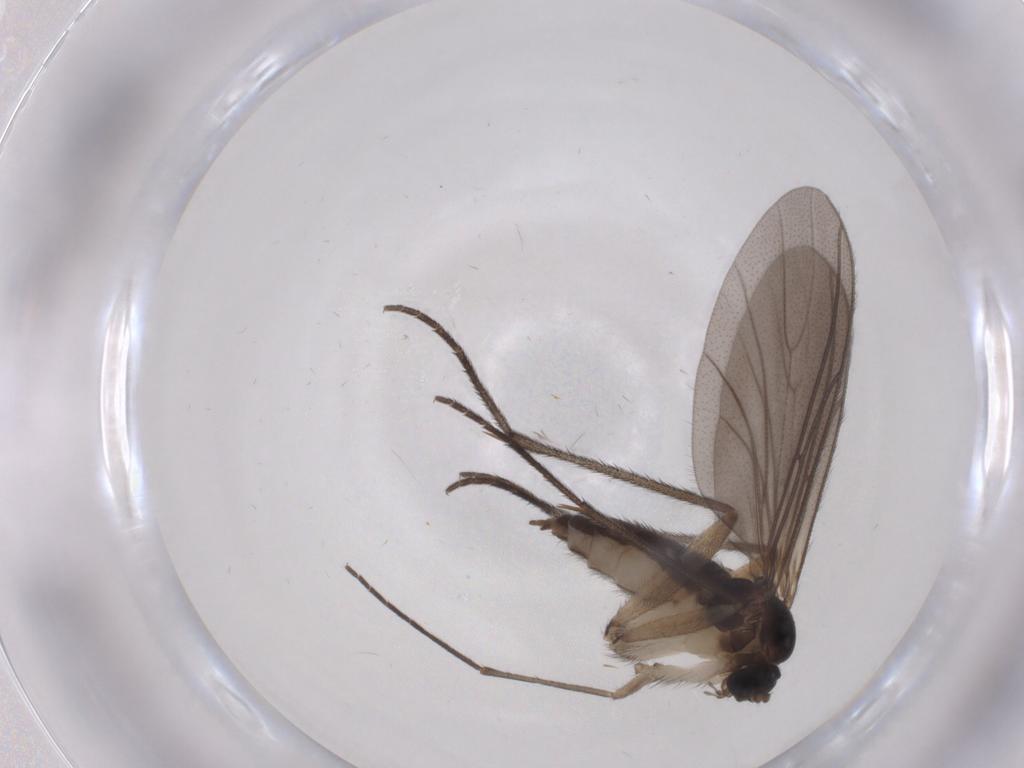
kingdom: Animalia
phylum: Arthropoda
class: Insecta
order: Diptera
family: Sciaridae
